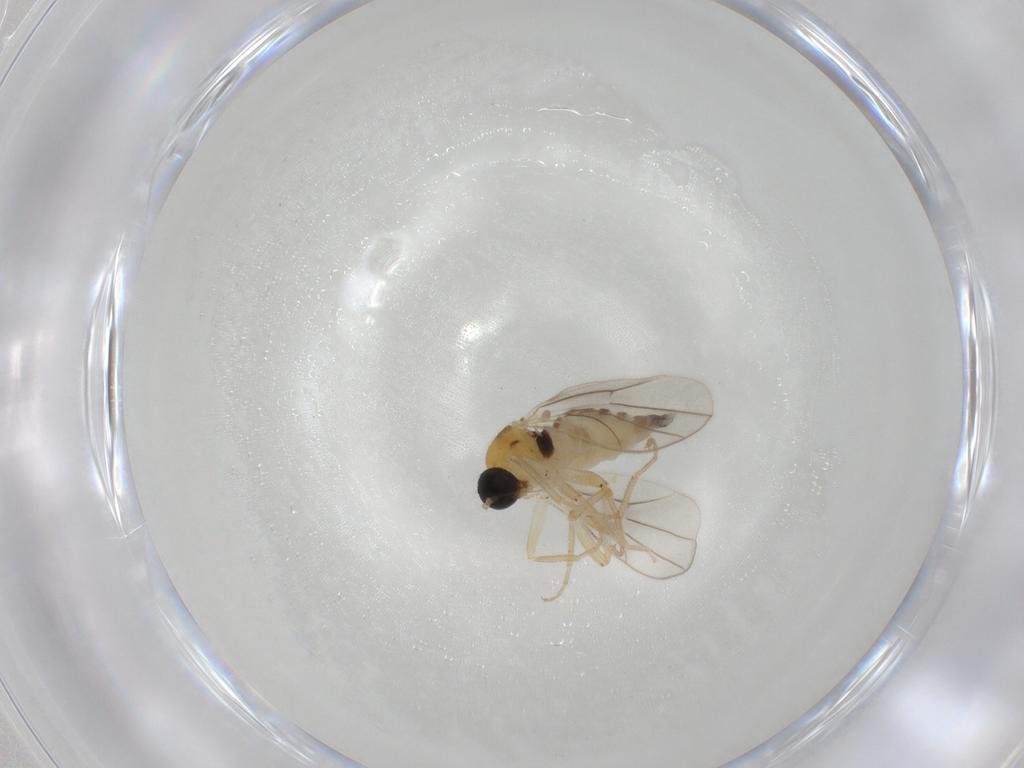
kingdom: Animalia
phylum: Arthropoda
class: Insecta
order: Diptera
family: Hybotidae
